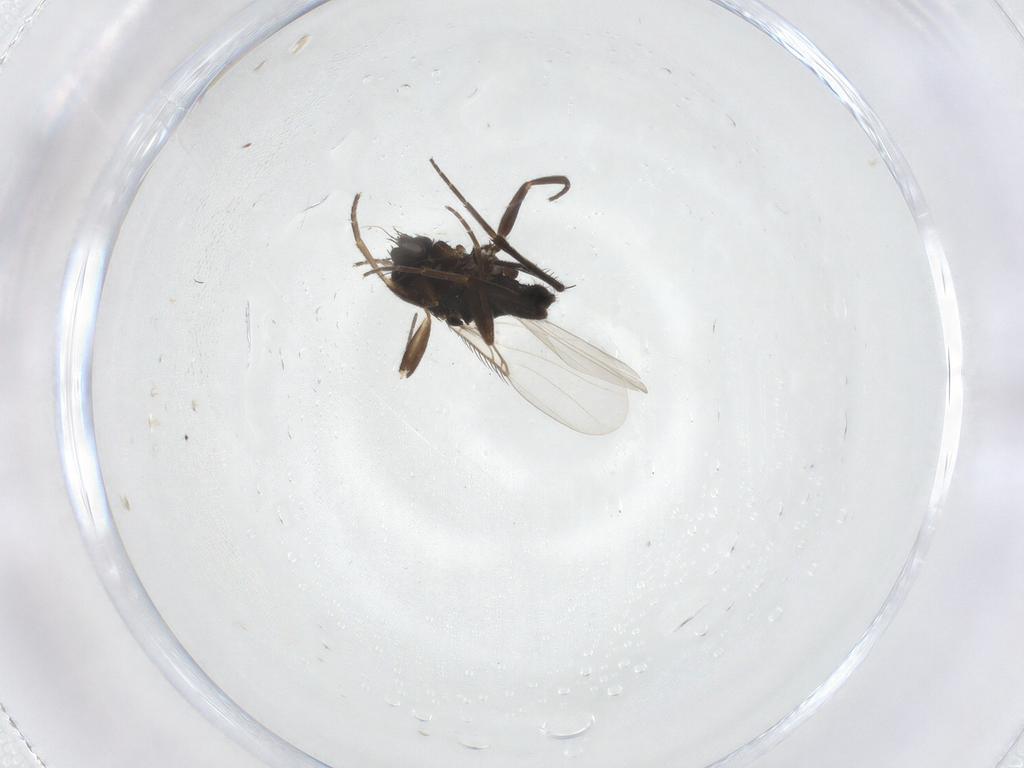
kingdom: Animalia
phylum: Arthropoda
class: Insecta
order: Diptera
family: Phoridae
